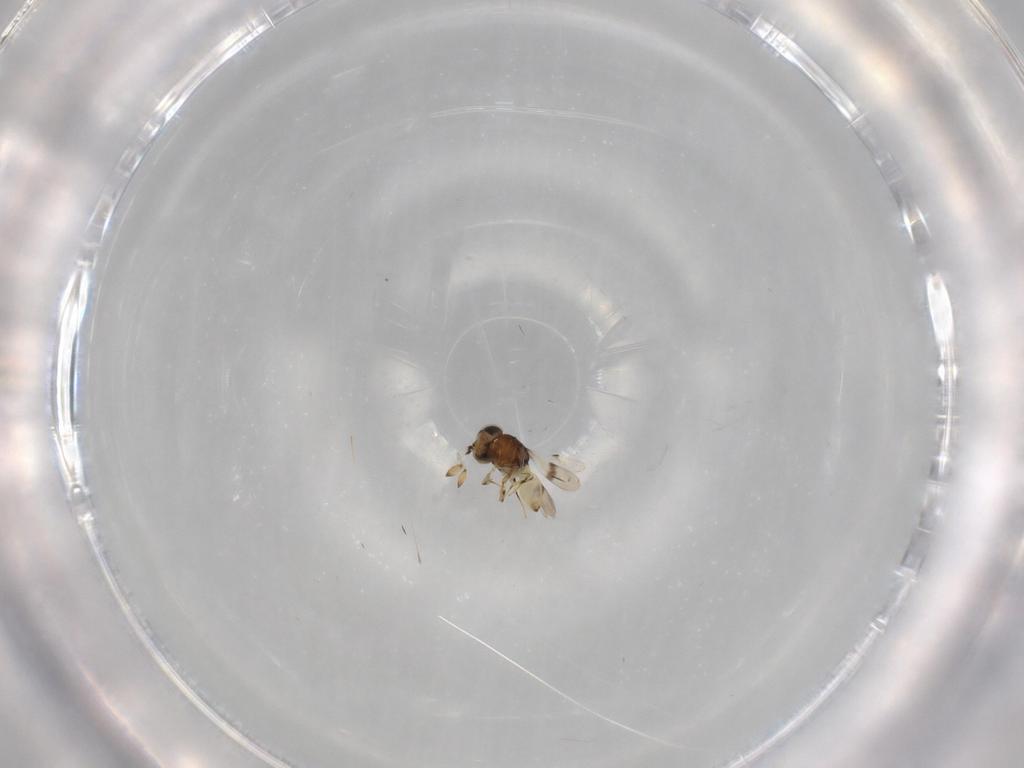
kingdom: Animalia
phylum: Arthropoda
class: Insecta
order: Hymenoptera
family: Scelionidae
